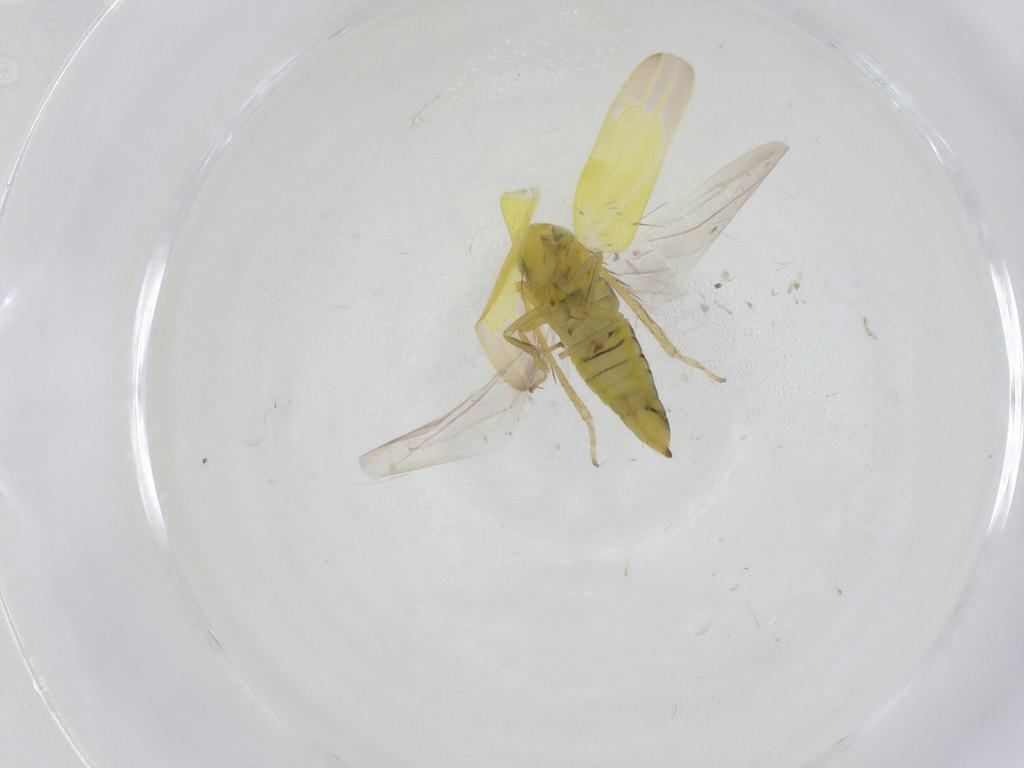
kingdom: Animalia
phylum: Arthropoda
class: Insecta
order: Hemiptera
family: Cicadellidae
